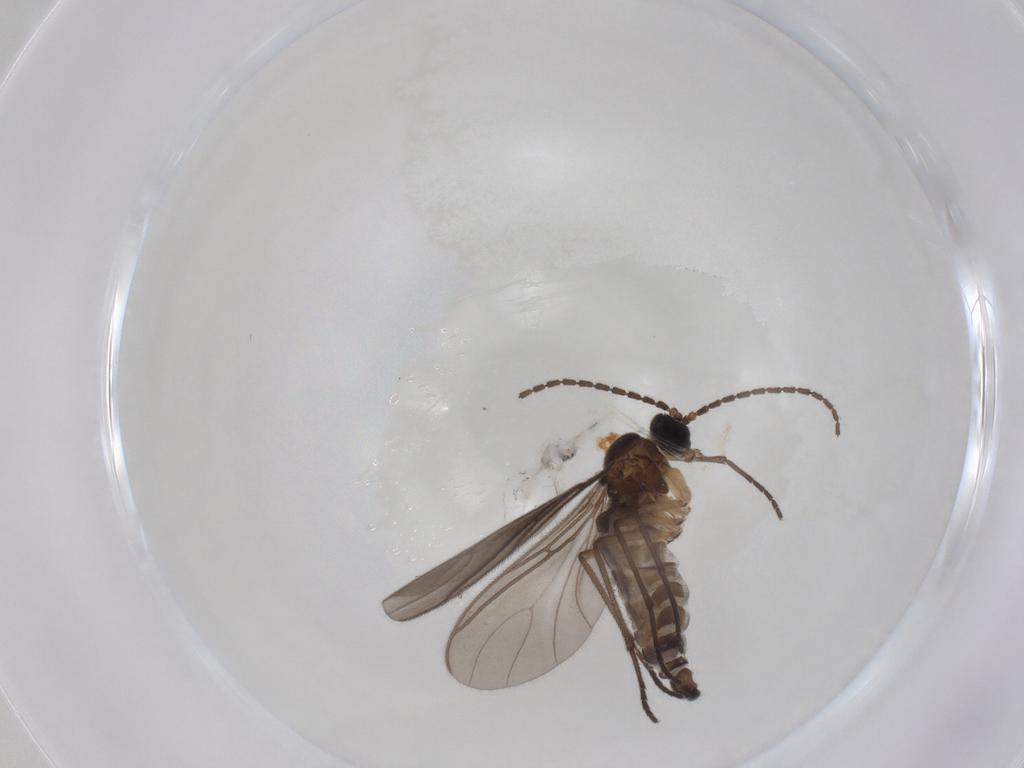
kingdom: Animalia
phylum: Arthropoda
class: Insecta
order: Diptera
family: Sciaridae
